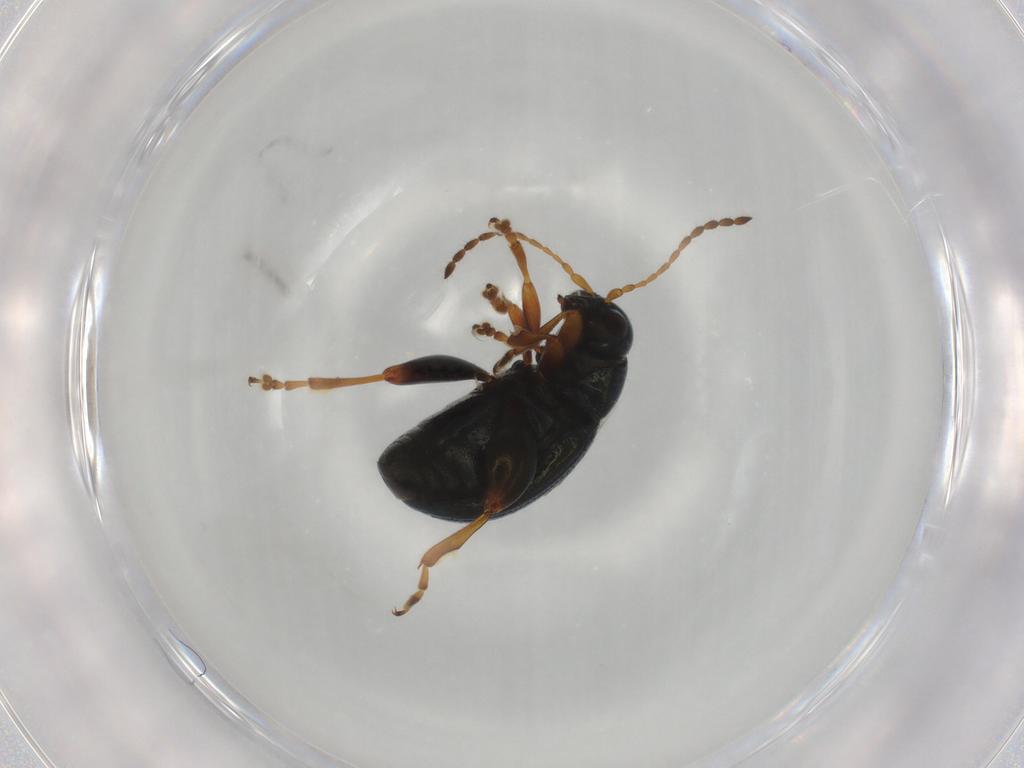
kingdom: Animalia
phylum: Arthropoda
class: Insecta
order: Coleoptera
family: Chrysomelidae
